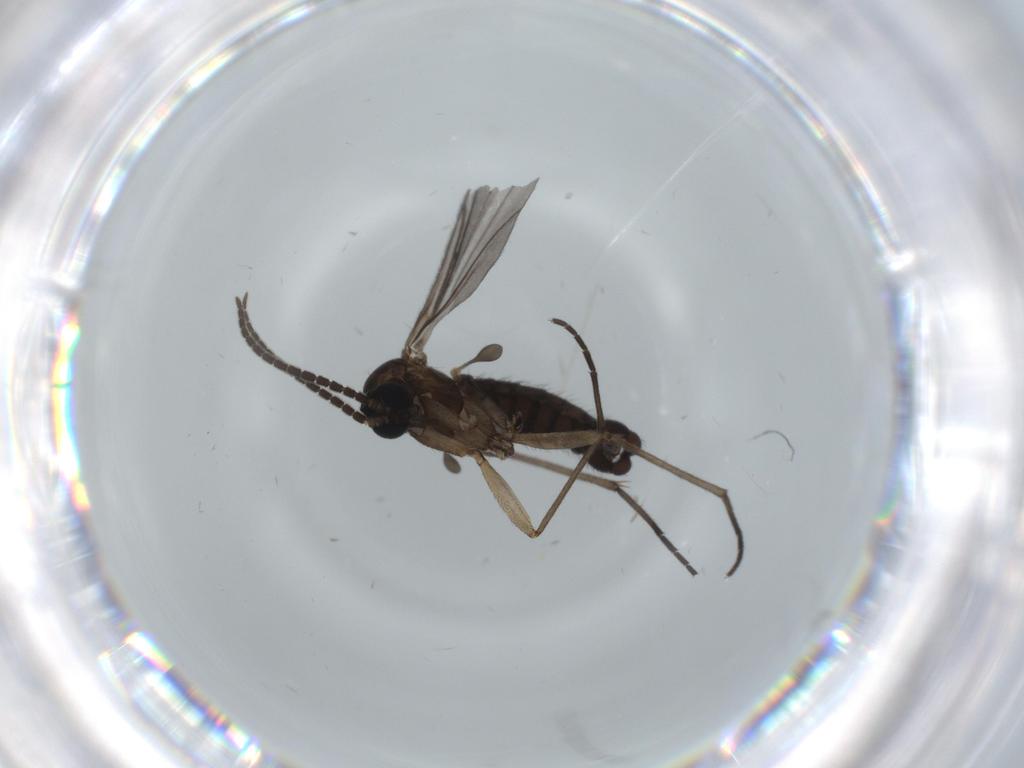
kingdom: Animalia
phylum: Arthropoda
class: Insecta
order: Diptera
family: Sciaridae
